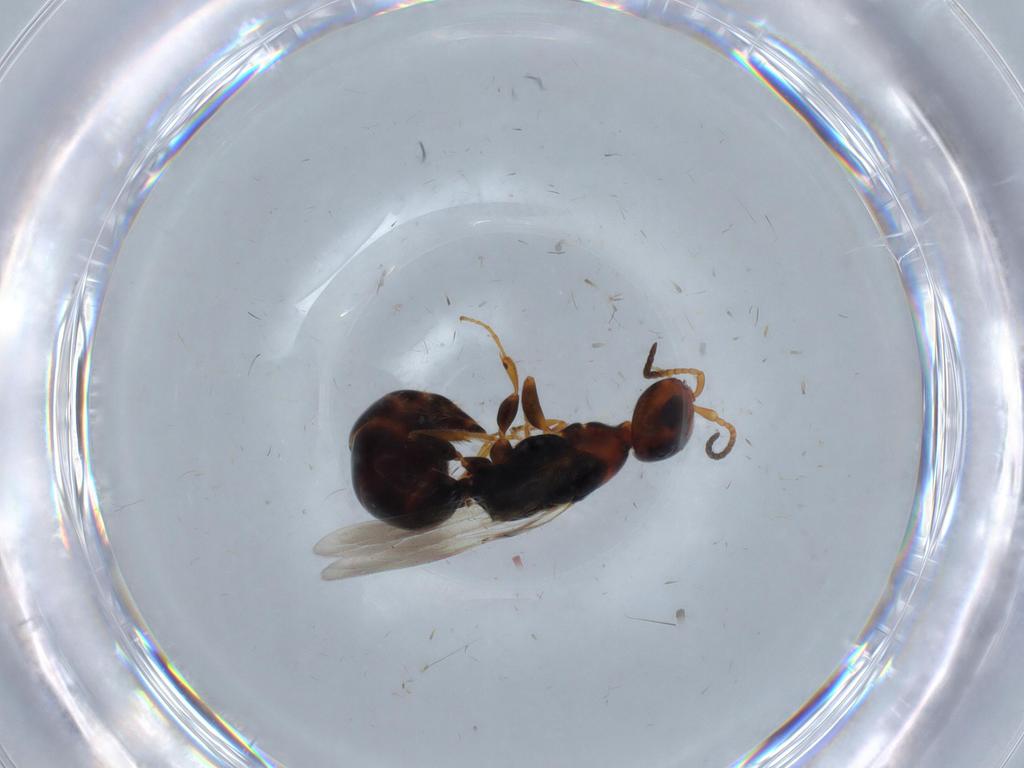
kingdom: Animalia
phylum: Arthropoda
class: Insecta
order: Hymenoptera
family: Bethylidae
